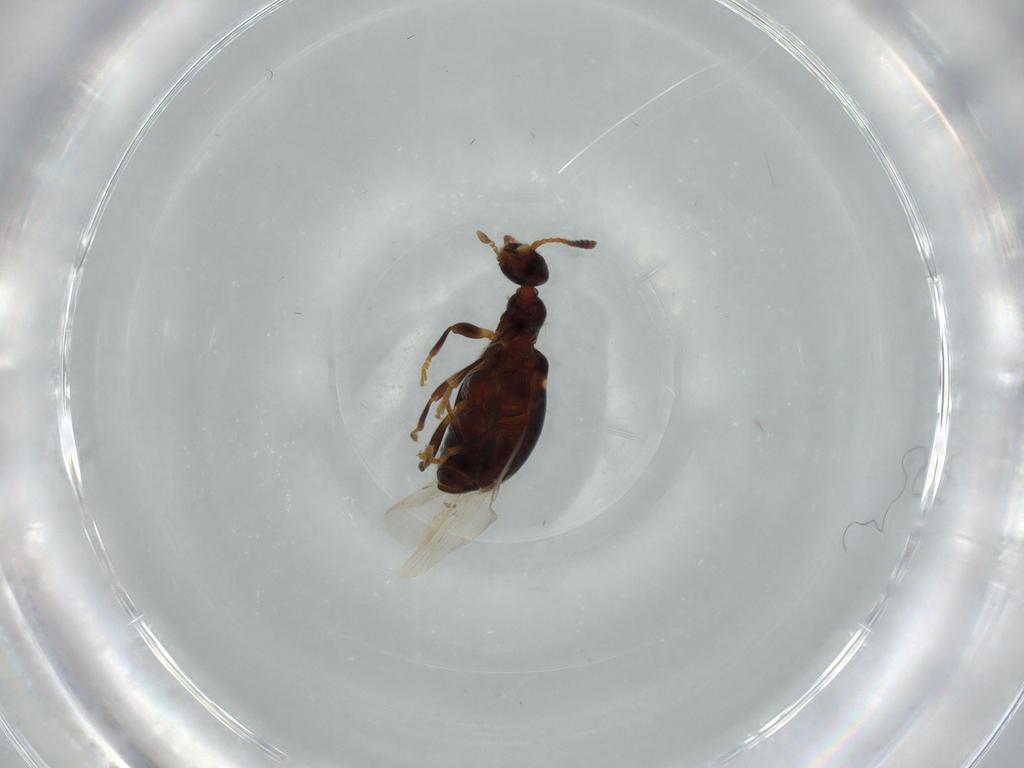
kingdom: Animalia
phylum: Arthropoda
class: Insecta
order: Coleoptera
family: Anthicidae
